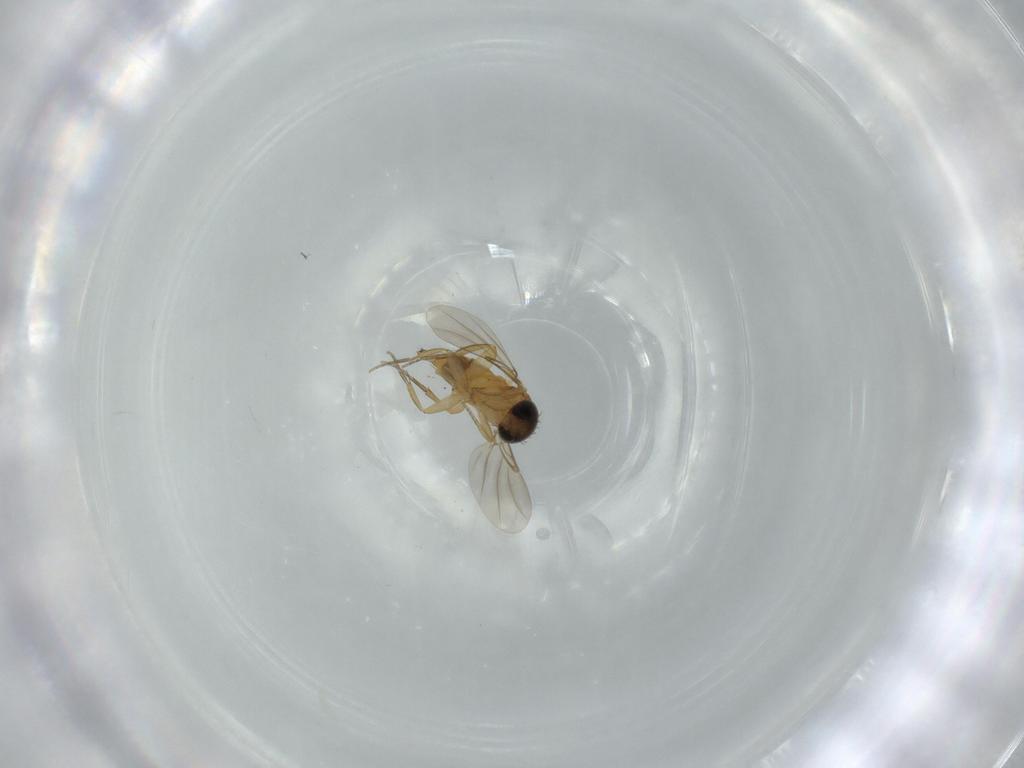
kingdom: Animalia
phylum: Arthropoda
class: Insecta
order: Diptera
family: Phoridae
